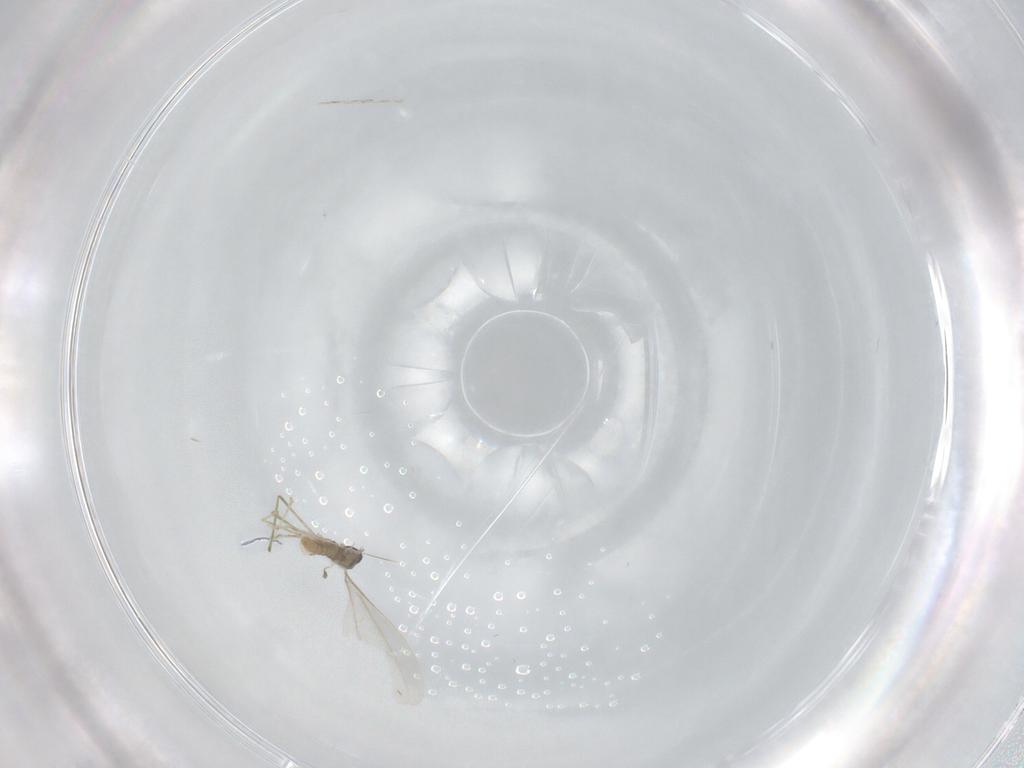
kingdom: Animalia
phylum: Arthropoda
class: Insecta
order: Diptera
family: Cecidomyiidae
